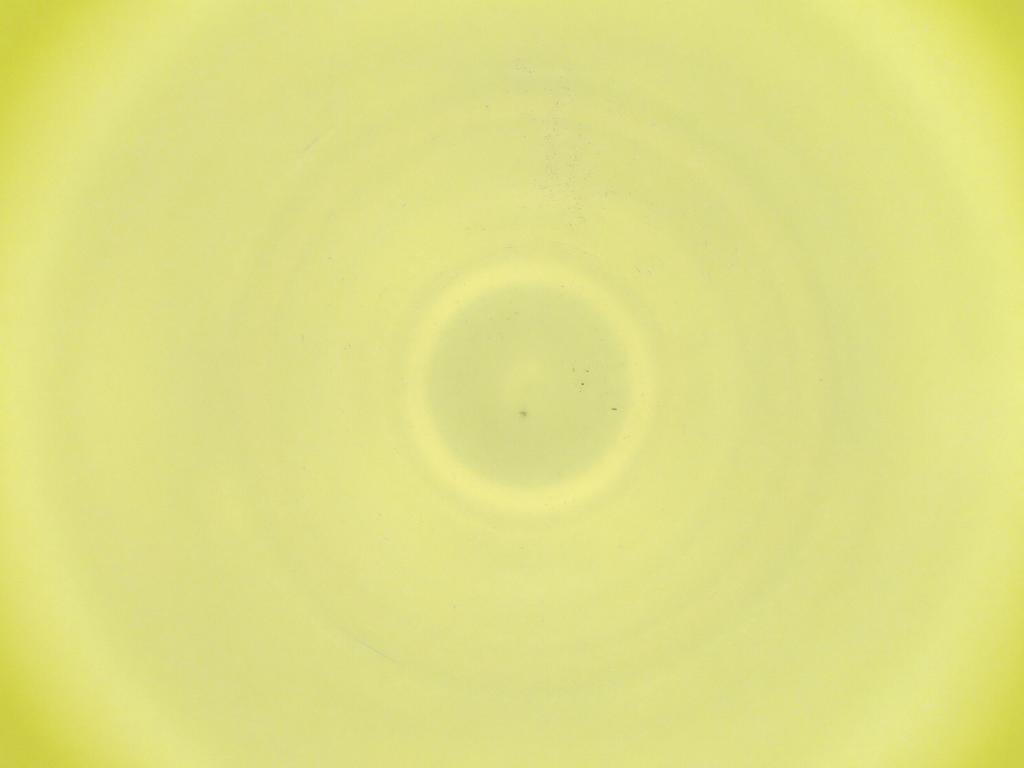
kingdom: Animalia
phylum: Arthropoda
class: Insecta
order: Diptera
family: Cecidomyiidae
